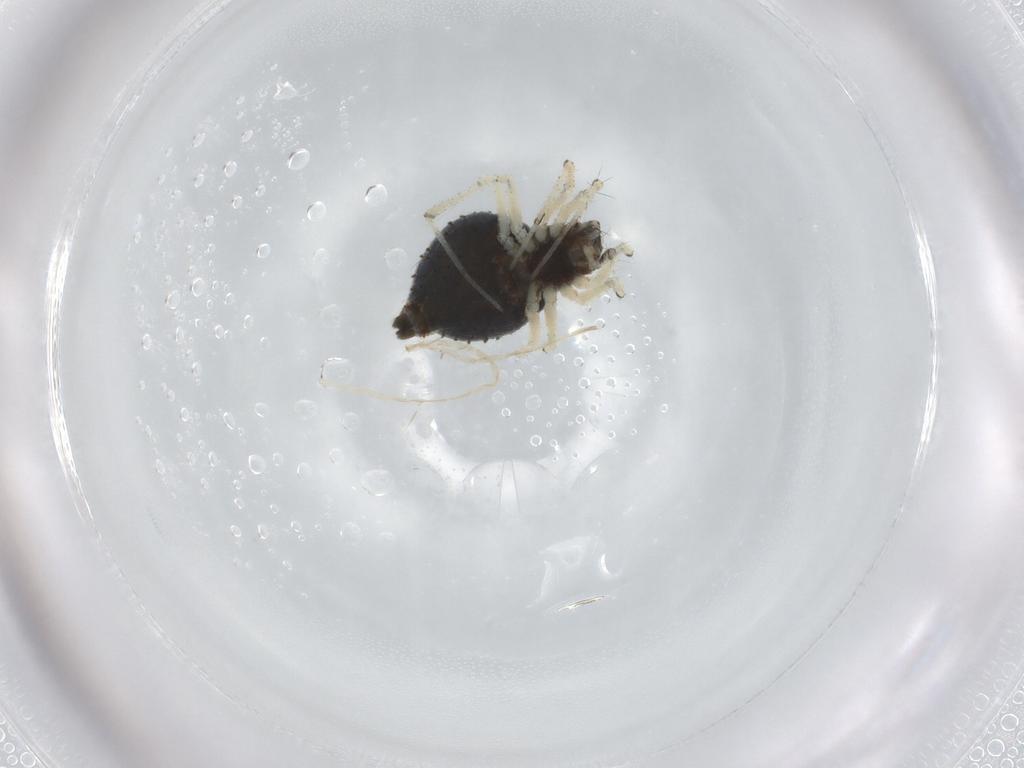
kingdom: Animalia
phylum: Arthropoda
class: Arachnida
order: Araneae
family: Theridiidae
